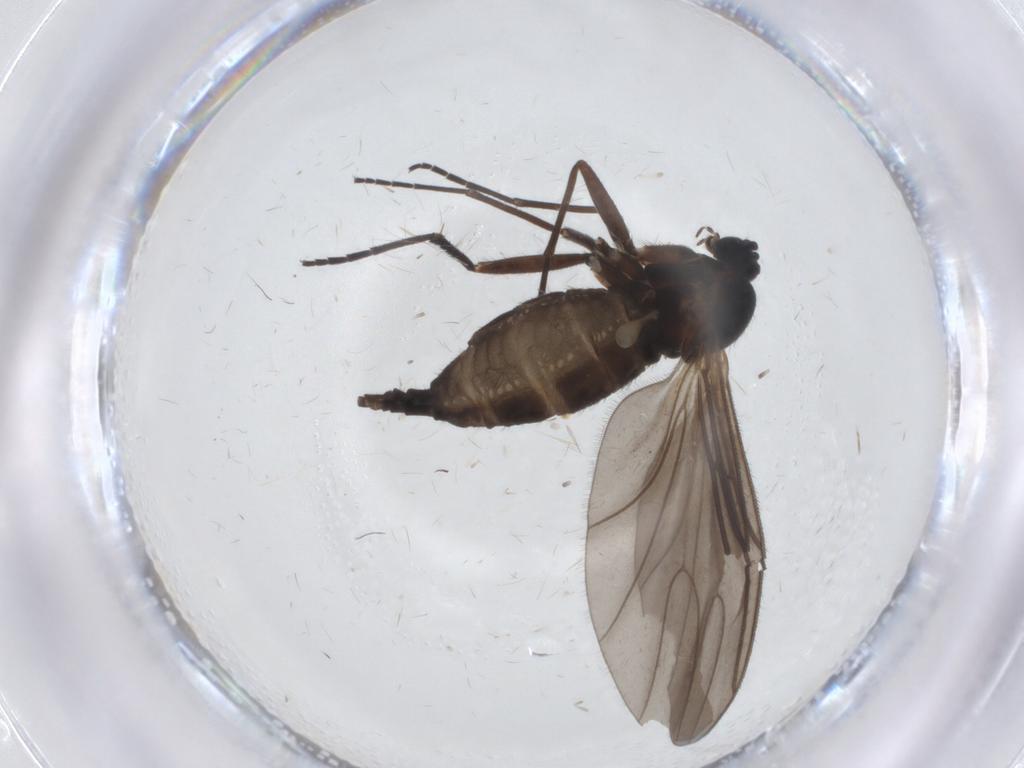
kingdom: Animalia
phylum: Arthropoda
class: Insecta
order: Diptera
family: Sciaridae
